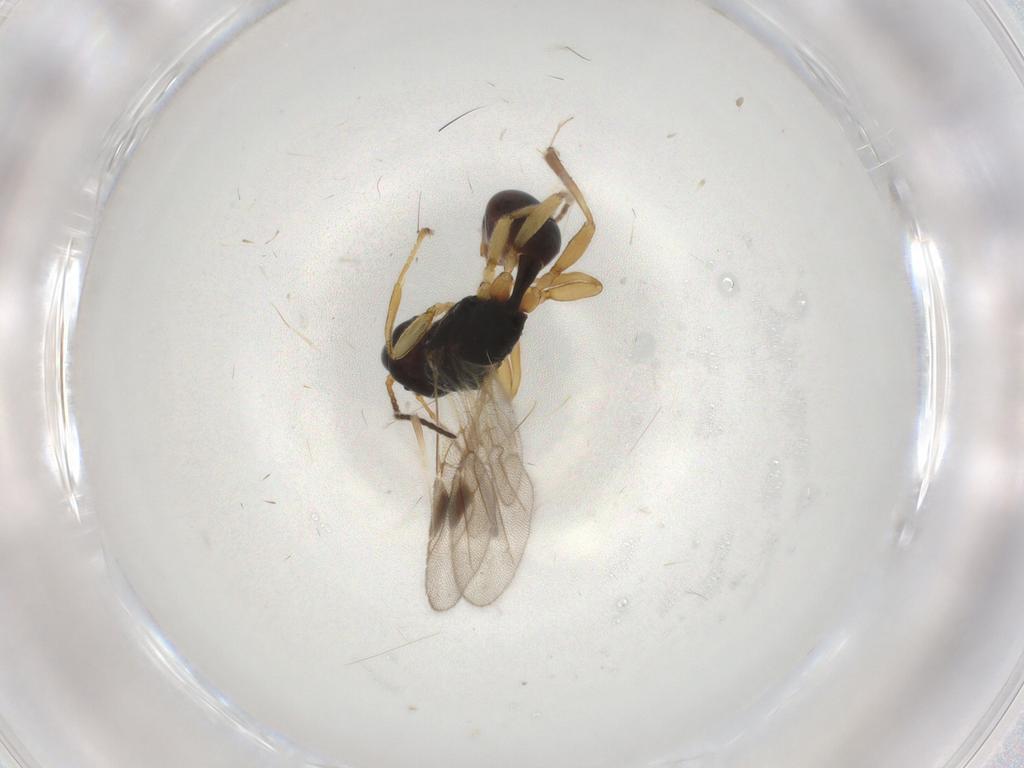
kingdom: Animalia
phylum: Arthropoda
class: Insecta
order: Hymenoptera
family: Braconidae
